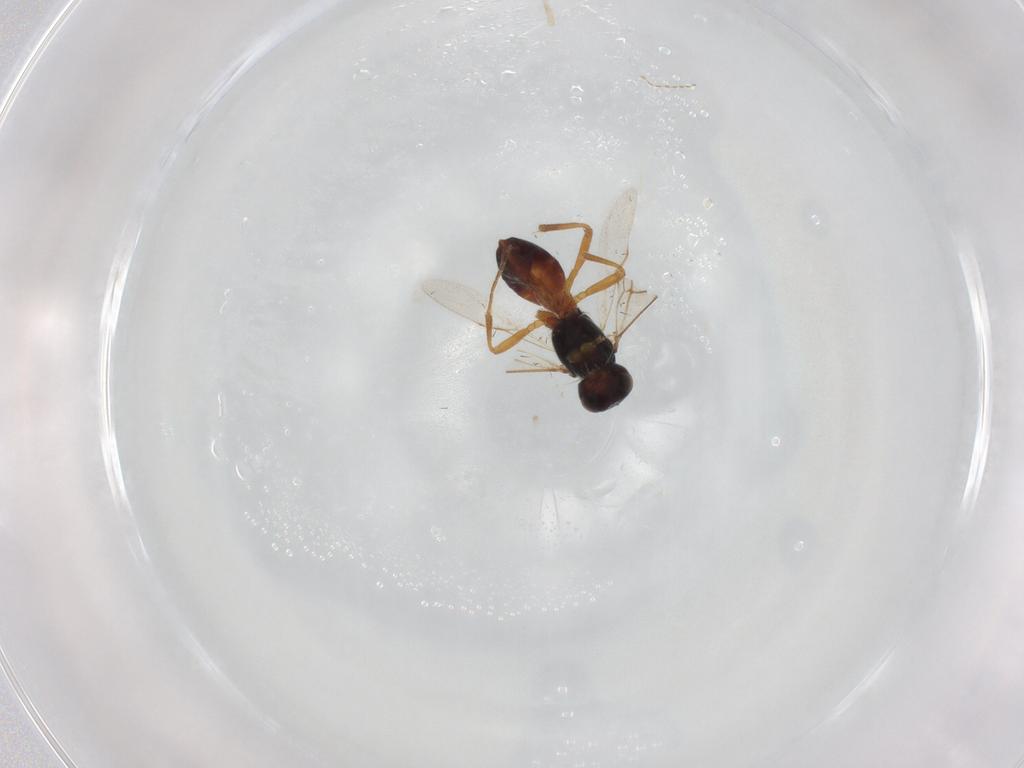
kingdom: Animalia
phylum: Arthropoda
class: Insecta
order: Hymenoptera
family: Braconidae
